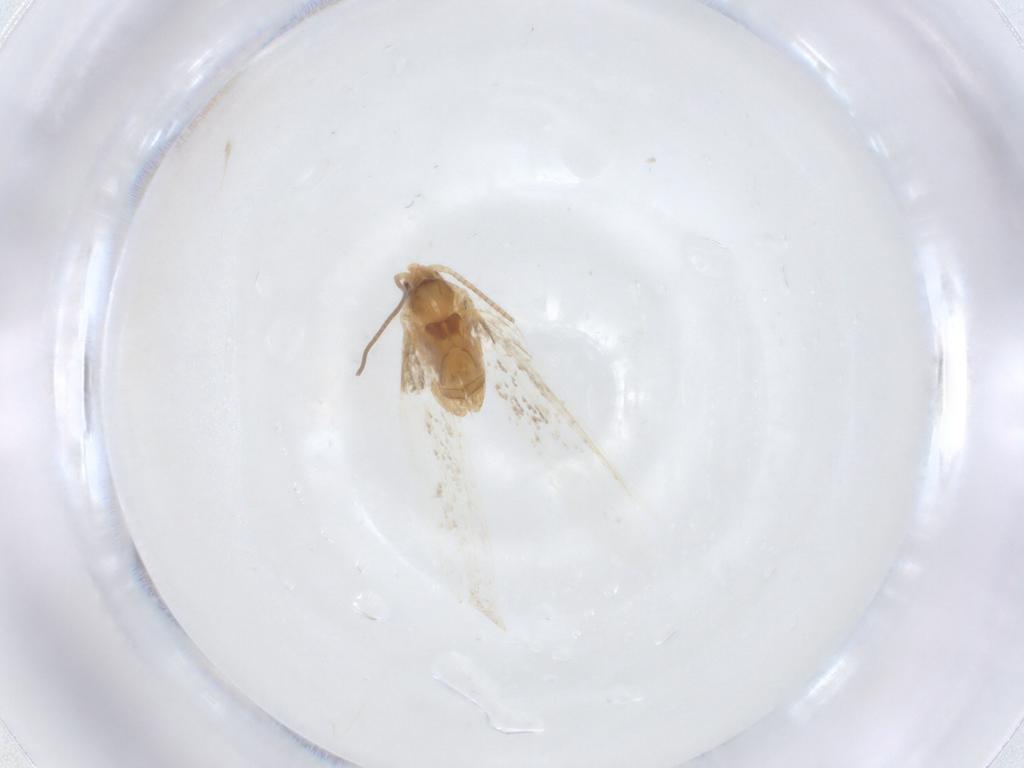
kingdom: Animalia
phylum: Arthropoda
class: Insecta
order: Lepidoptera
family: Gracillariidae
